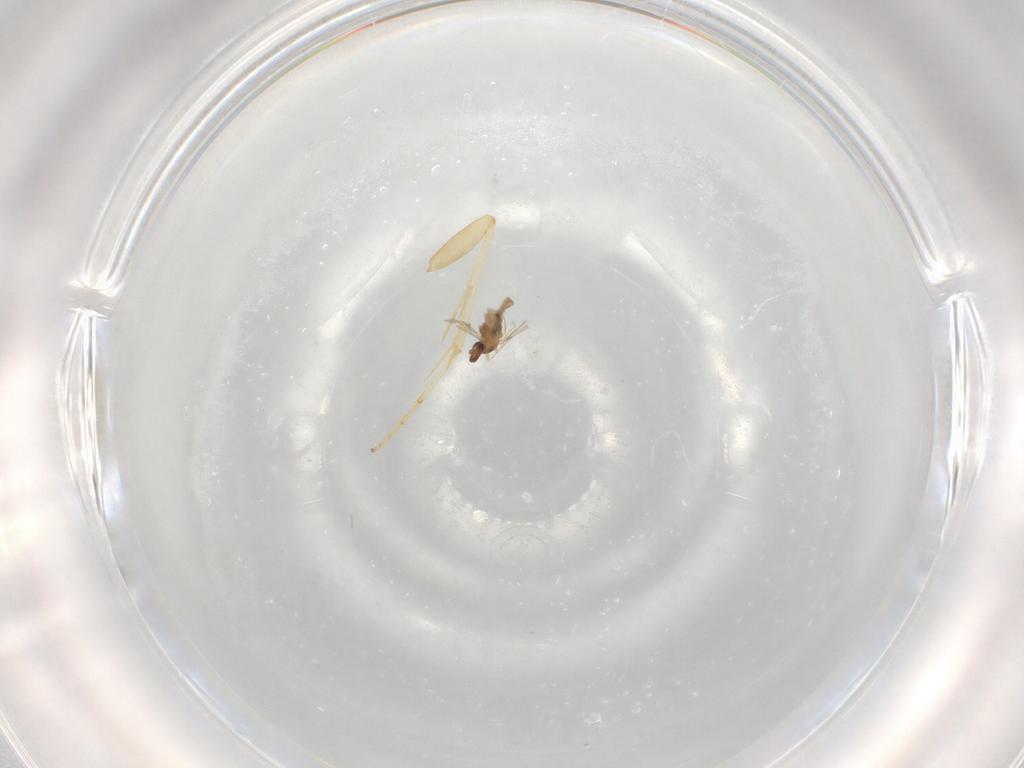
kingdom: Animalia
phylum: Arthropoda
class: Insecta
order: Diptera
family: Cecidomyiidae
